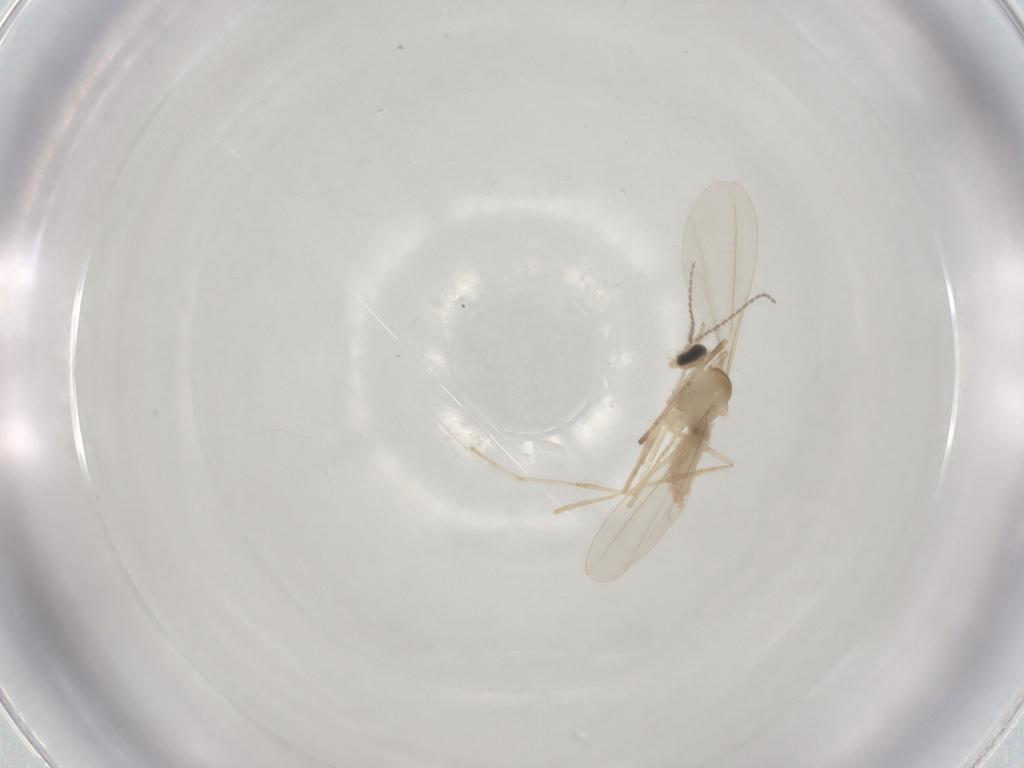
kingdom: Animalia
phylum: Arthropoda
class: Insecta
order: Diptera
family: Cecidomyiidae
